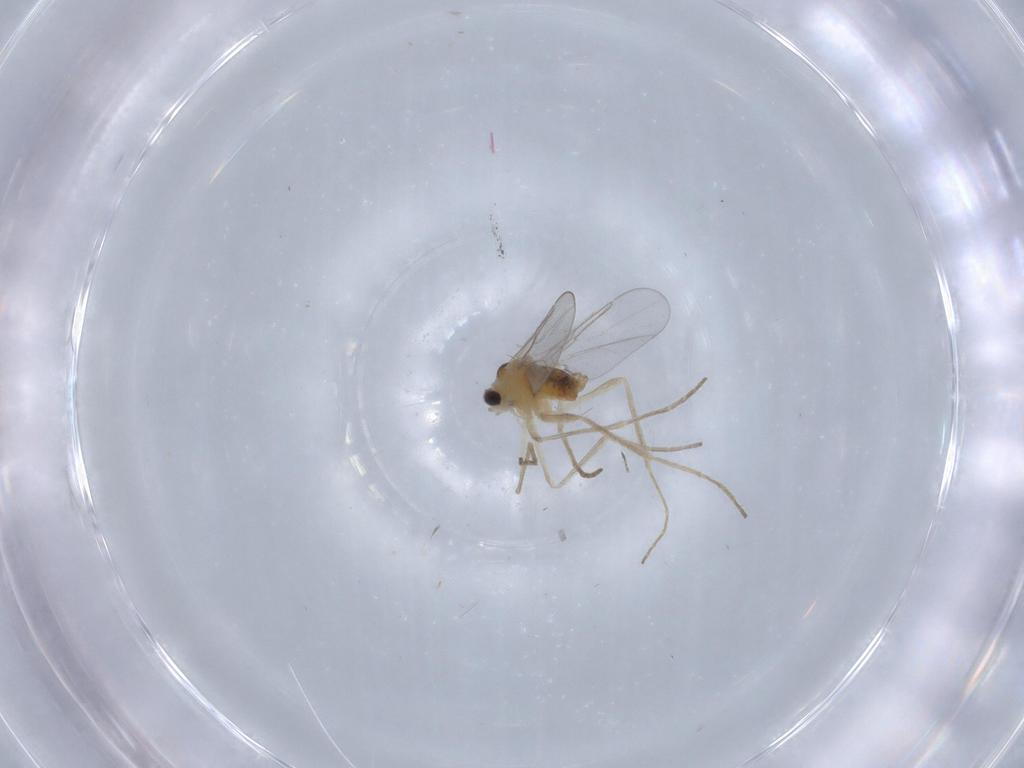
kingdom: Animalia
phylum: Arthropoda
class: Insecta
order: Diptera
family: Cecidomyiidae
